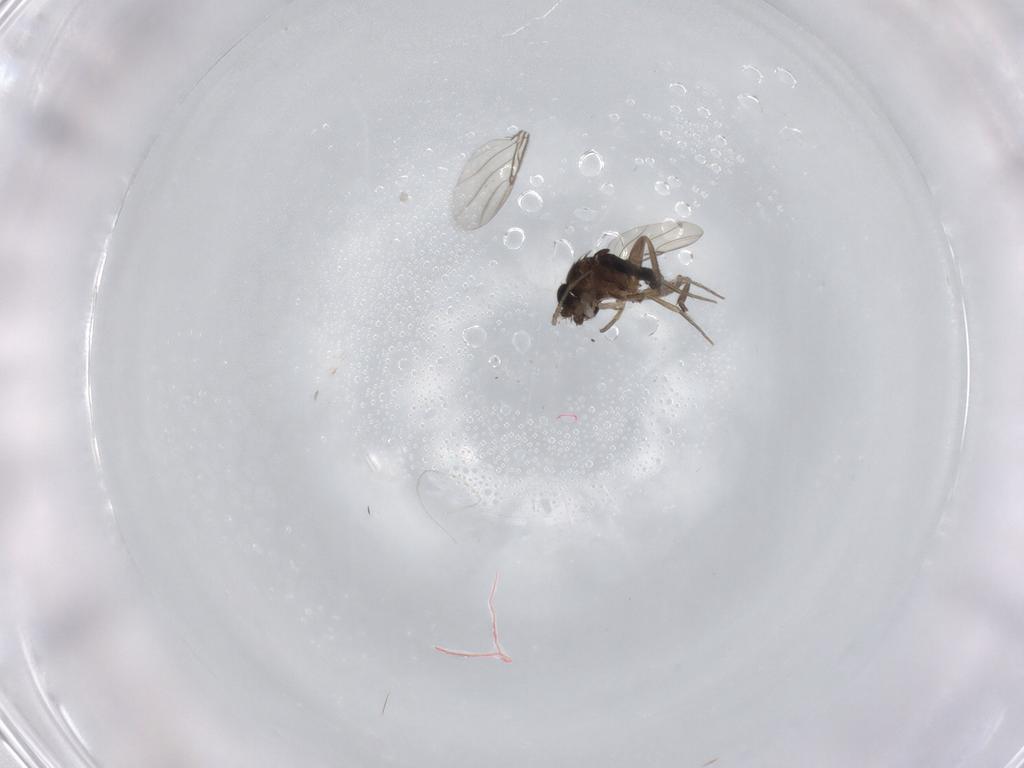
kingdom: Animalia
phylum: Arthropoda
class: Insecta
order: Diptera
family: Phoridae
